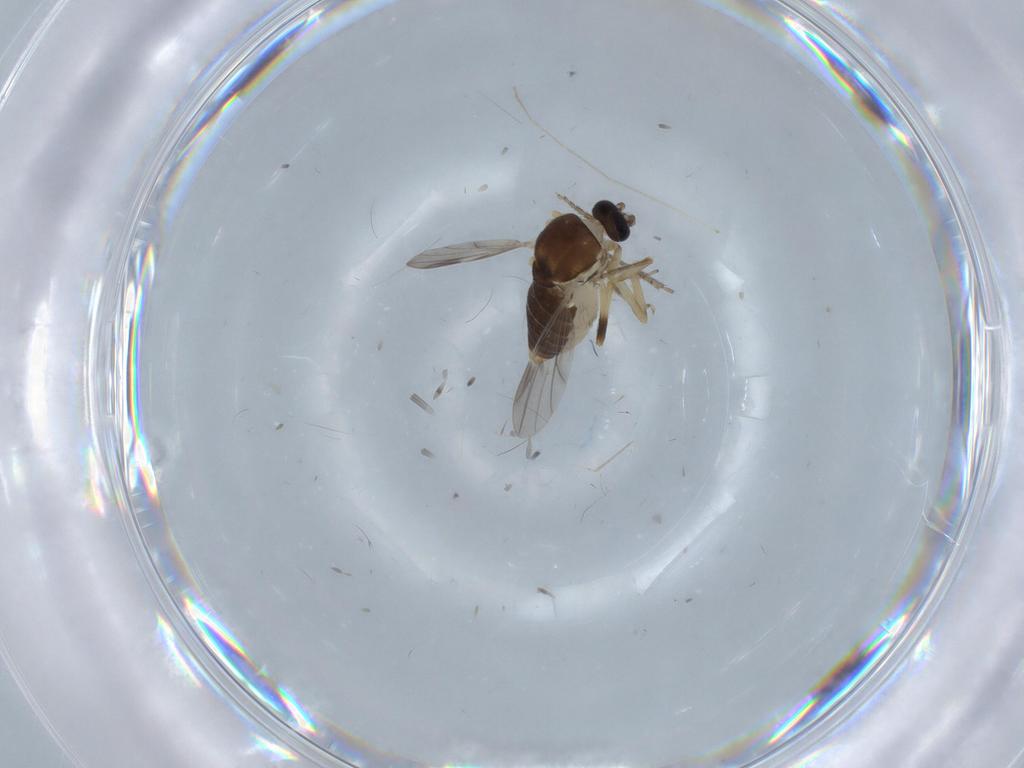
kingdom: Animalia
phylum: Arthropoda
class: Insecta
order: Diptera
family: Ceratopogonidae
